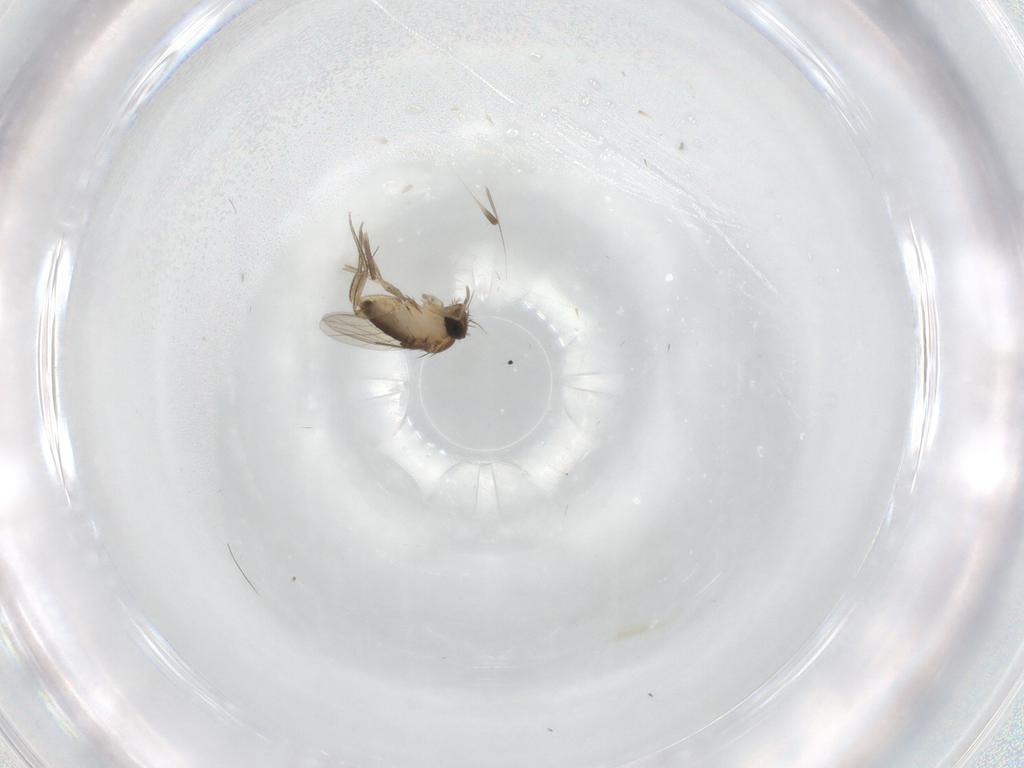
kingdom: Animalia
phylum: Arthropoda
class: Insecta
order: Diptera
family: Phoridae
